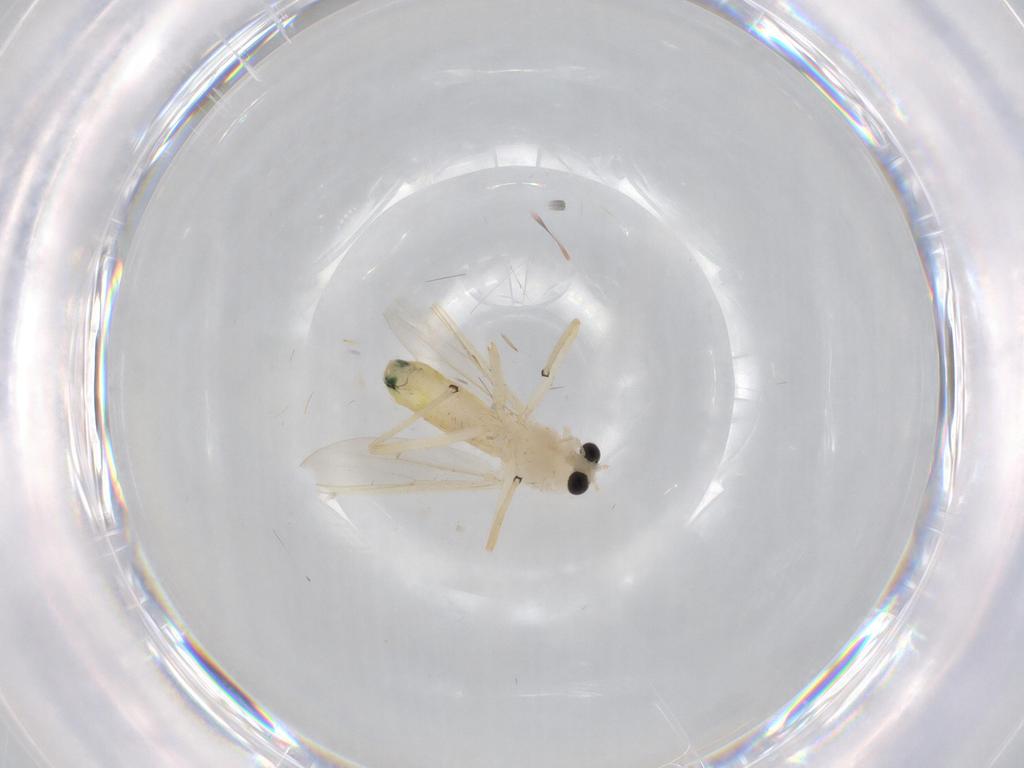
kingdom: Animalia
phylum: Arthropoda
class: Insecta
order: Diptera
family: Chironomidae
